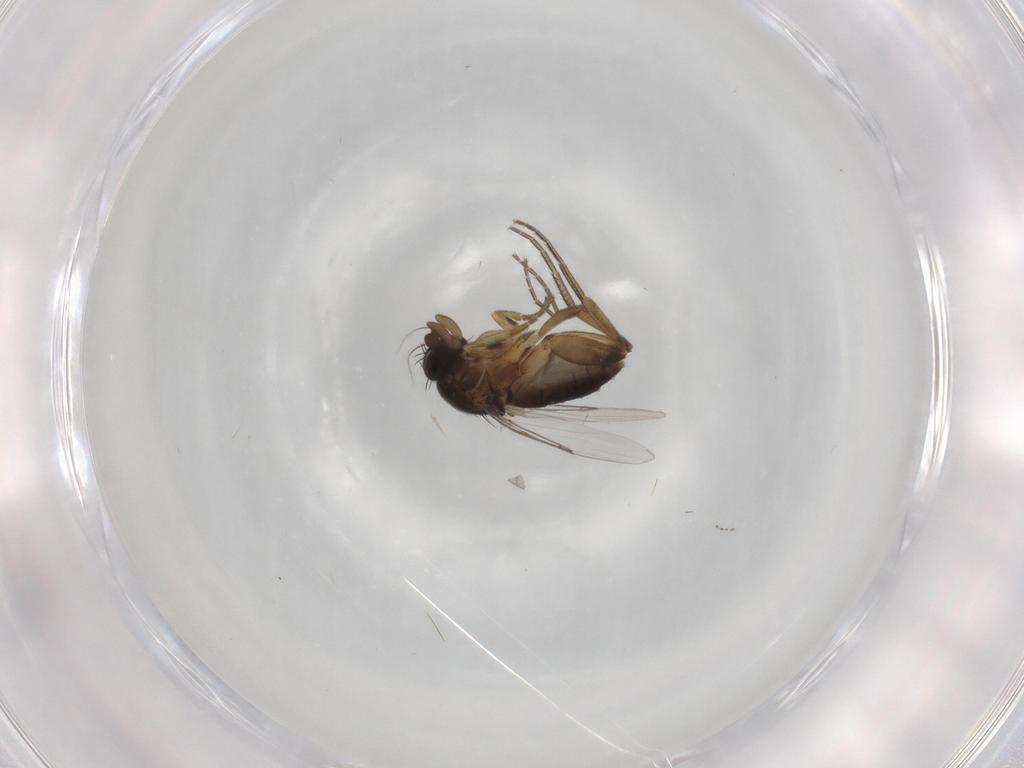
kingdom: Animalia
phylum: Arthropoda
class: Insecta
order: Diptera
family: Phoridae
